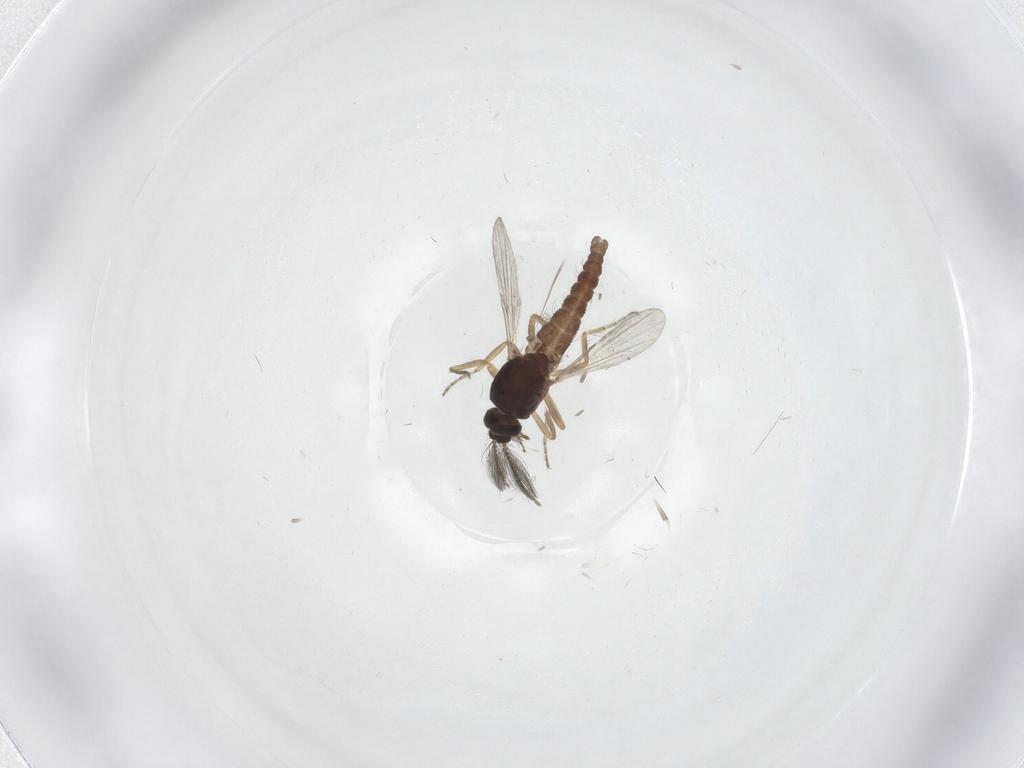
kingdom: Animalia
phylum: Arthropoda
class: Insecta
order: Diptera
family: Ceratopogonidae
